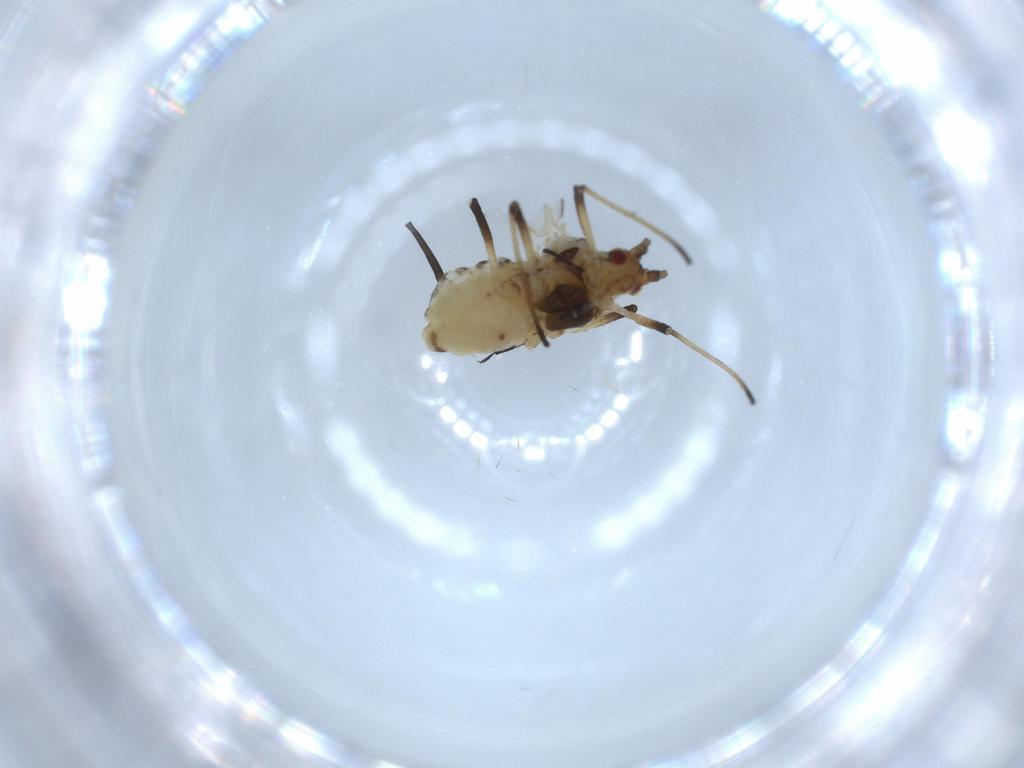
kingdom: Animalia
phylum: Arthropoda
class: Insecta
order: Hemiptera
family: Aphididae
